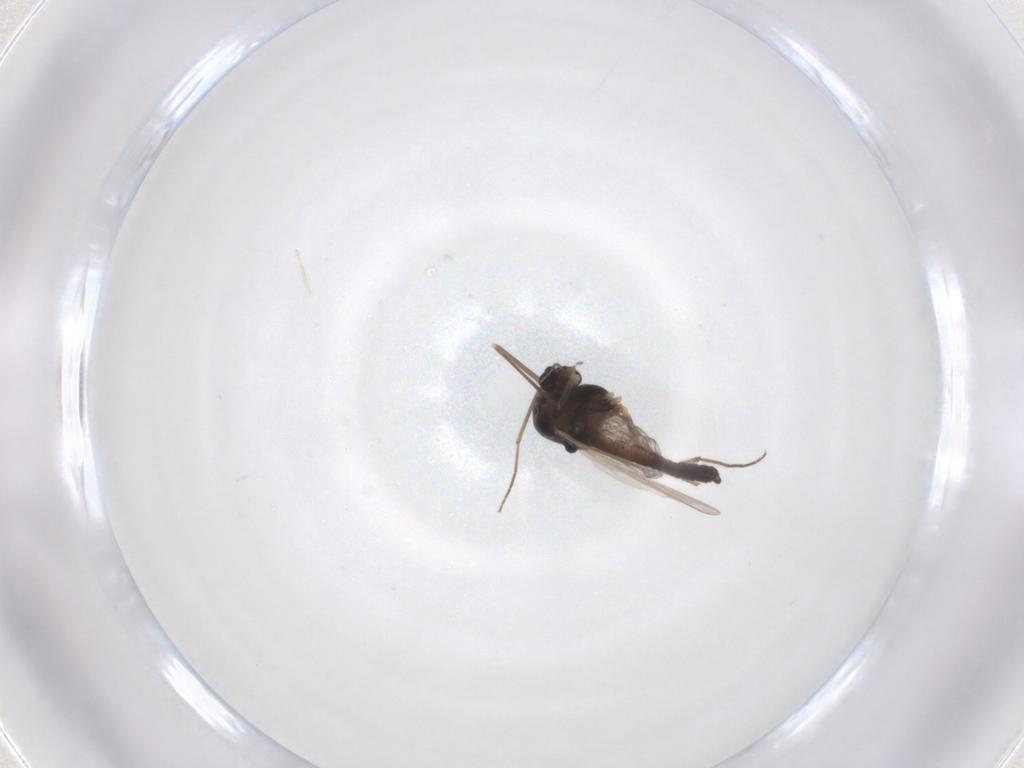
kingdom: Animalia
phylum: Arthropoda
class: Insecta
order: Diptera
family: Chironomidae
